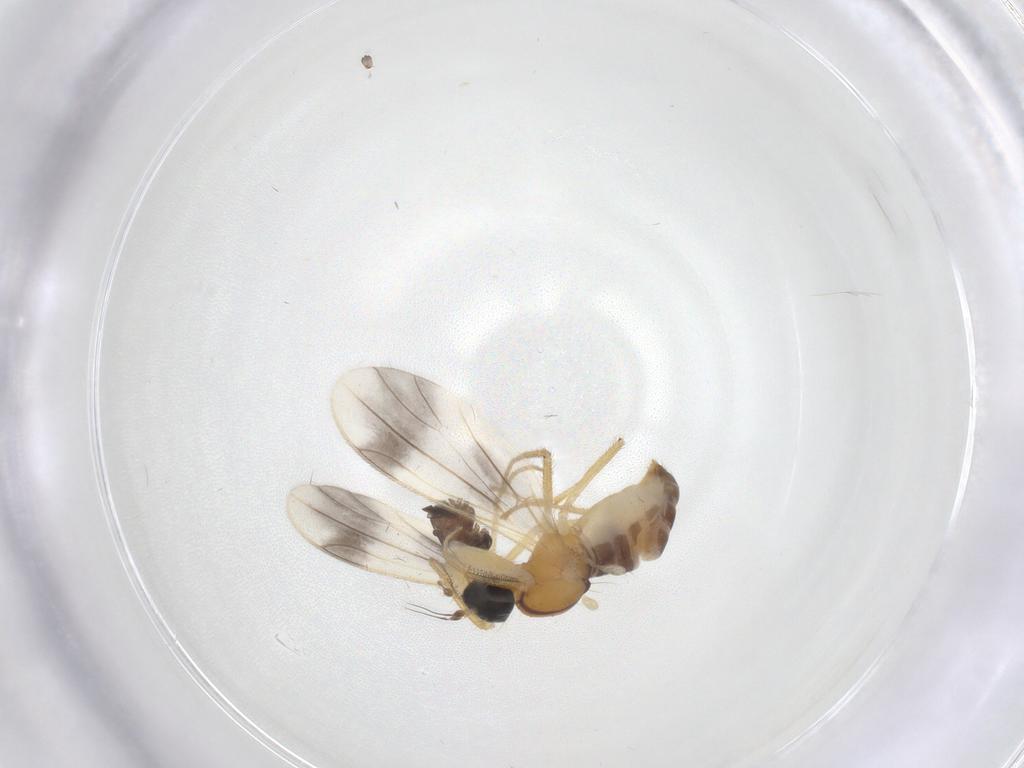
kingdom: Animalia
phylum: Arthropoda
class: Insecta
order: Diptera
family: Cecidomyiidae
